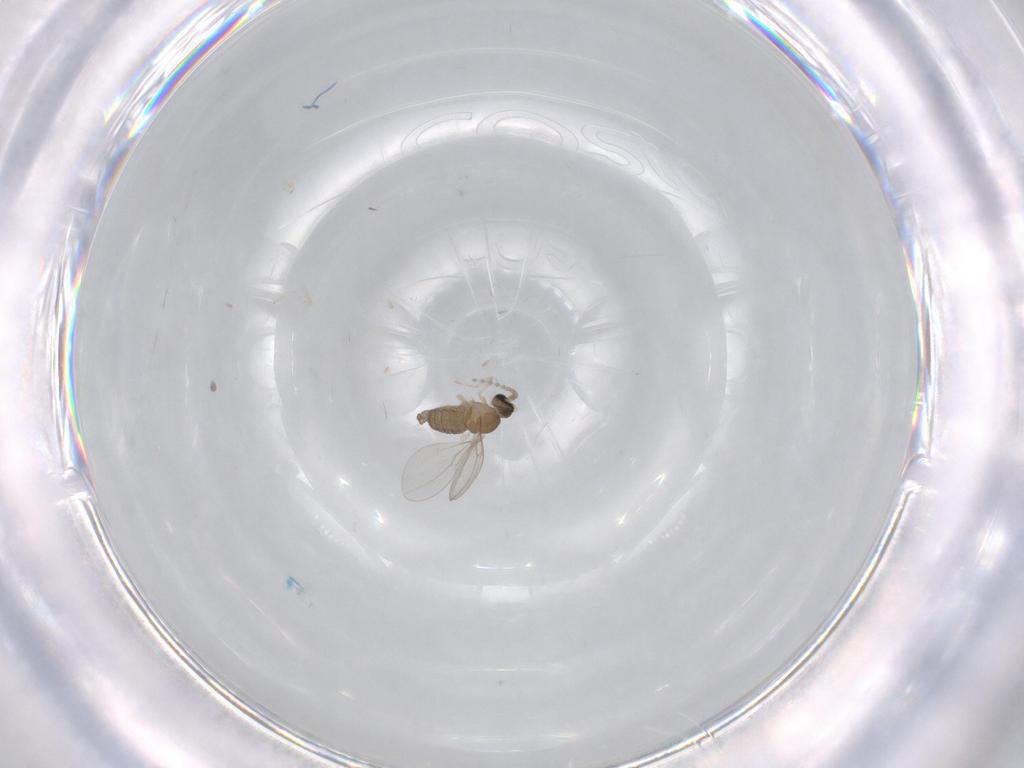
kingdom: Animalia
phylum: Arthropoda
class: Insecta
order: Diptera
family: Cecidomyiidae
